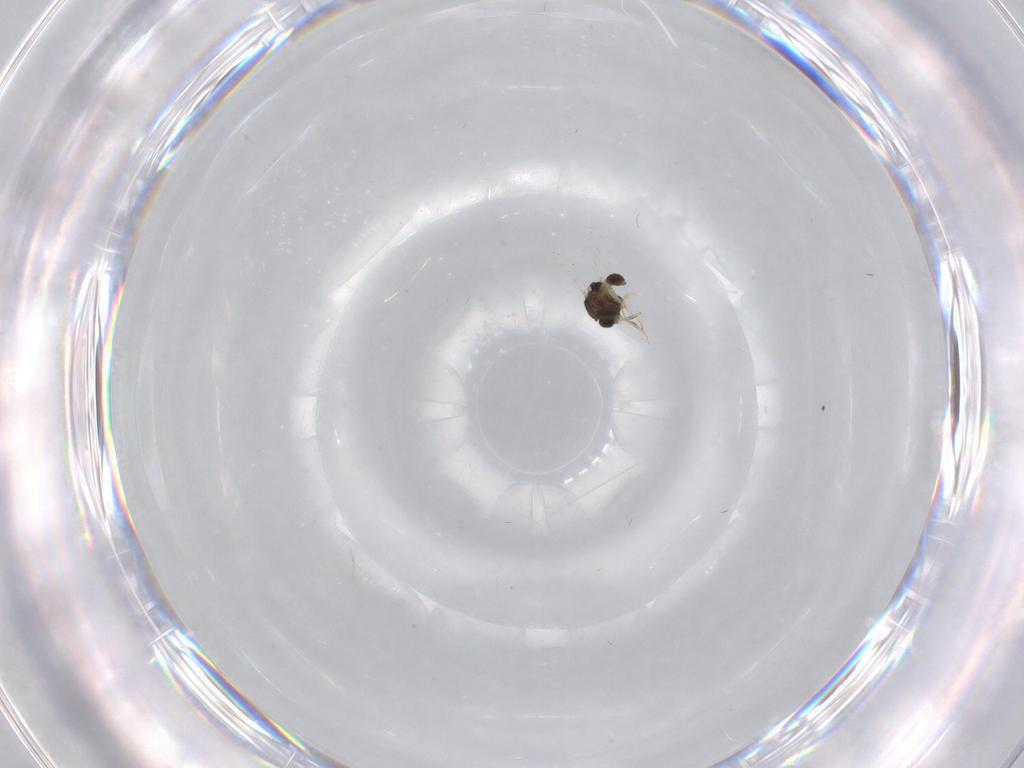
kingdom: Animalia
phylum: Arthropoda
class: Insecta
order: Diptera
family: Chironomidae
